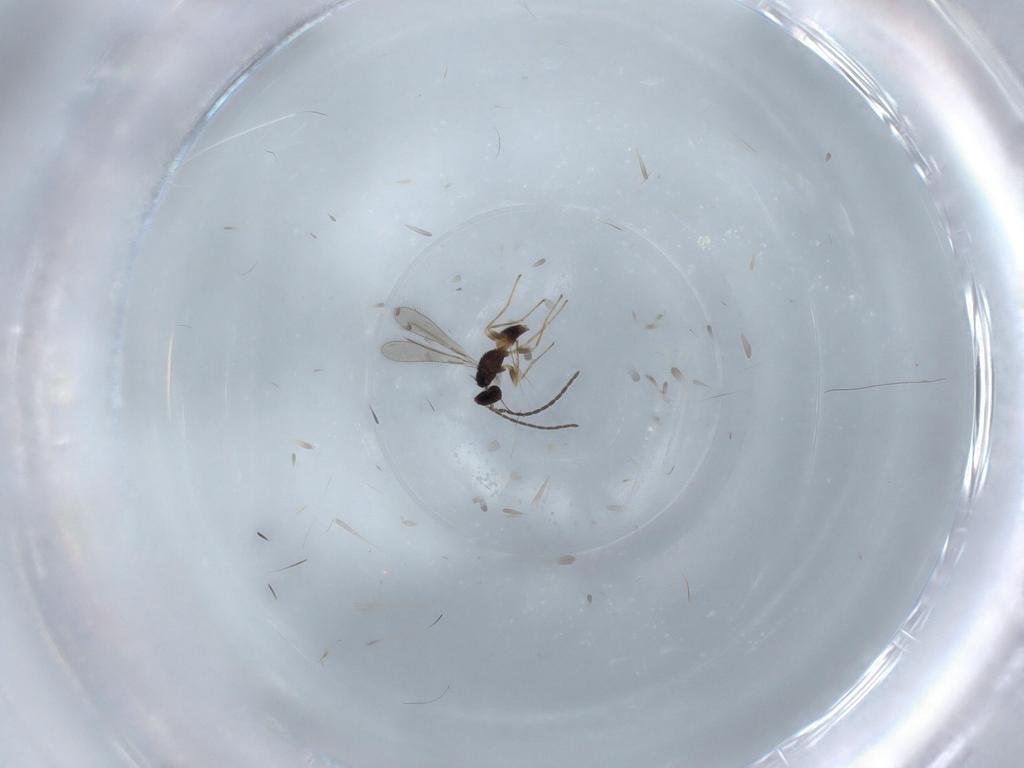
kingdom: Animalia
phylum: Arthropoda
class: Insecta
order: Hymenoptera
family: Mymaridae
